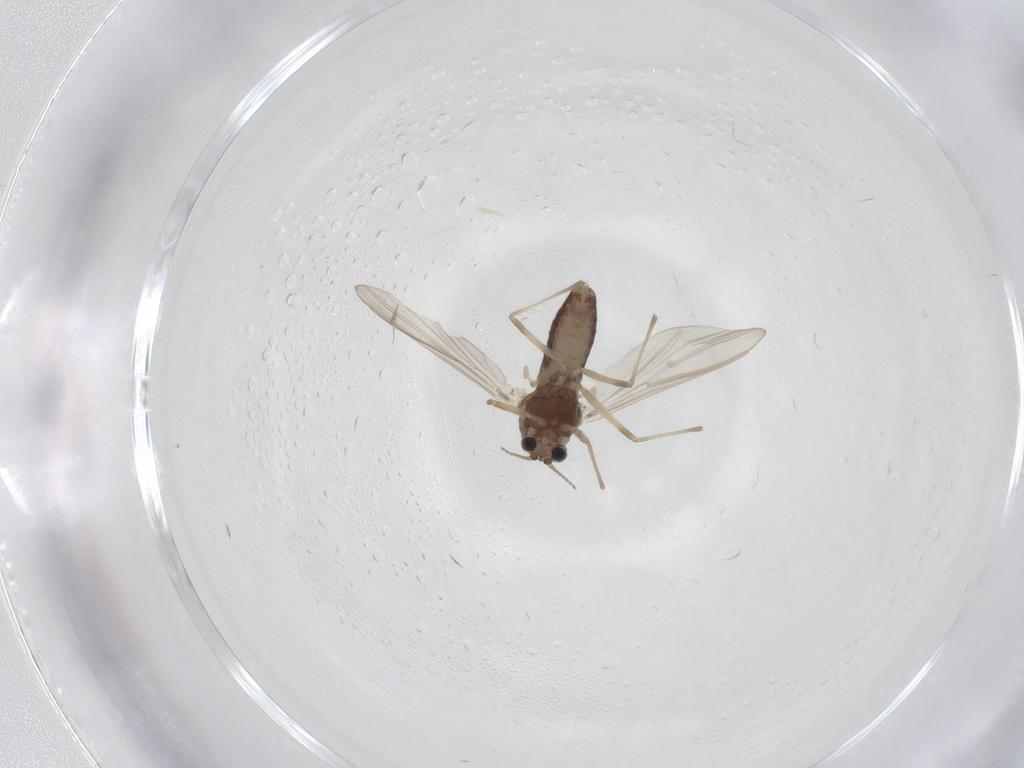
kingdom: Animalia
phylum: Arthropoda
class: Insecta
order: Diptera
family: Chironomidae
